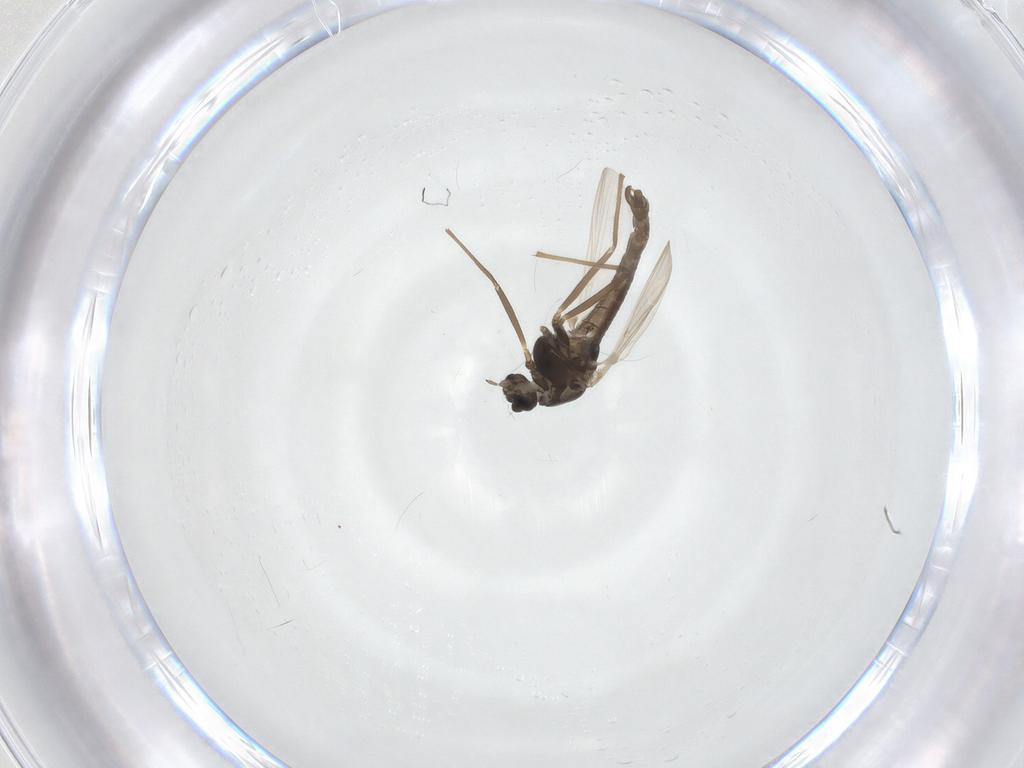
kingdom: Animalia
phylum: Arthropoda
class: Insecta
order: Diptera
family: Chironomidae
